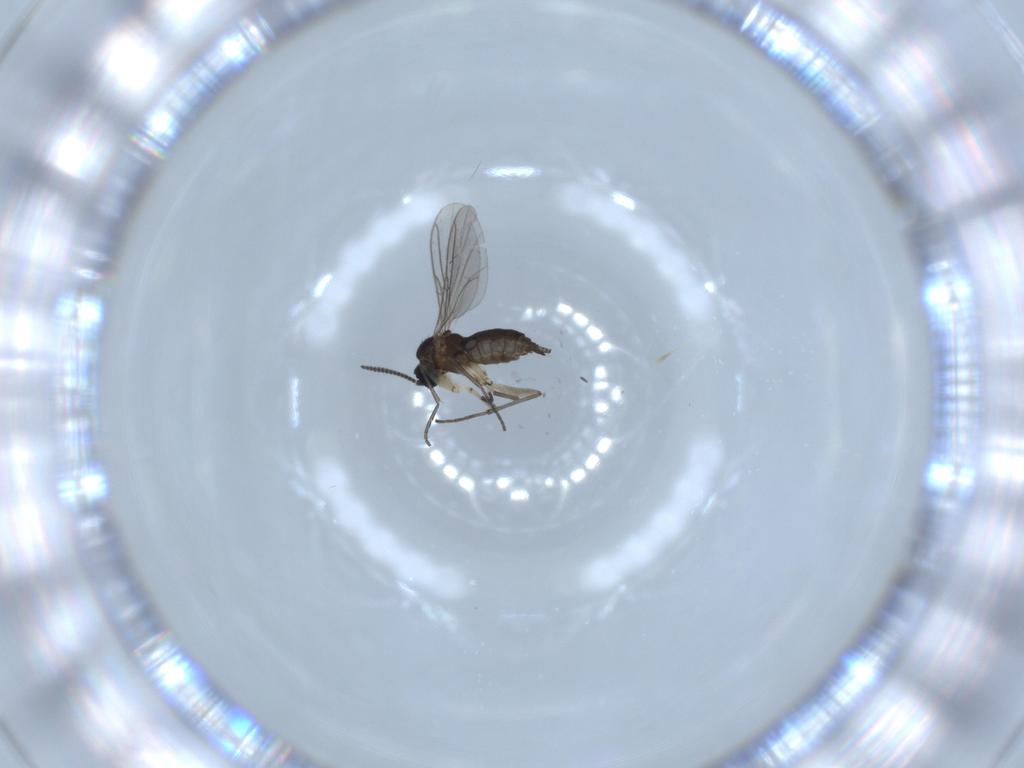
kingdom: Animalia
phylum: Arthropoda
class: Insecta
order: Diptera
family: Sciaridae
